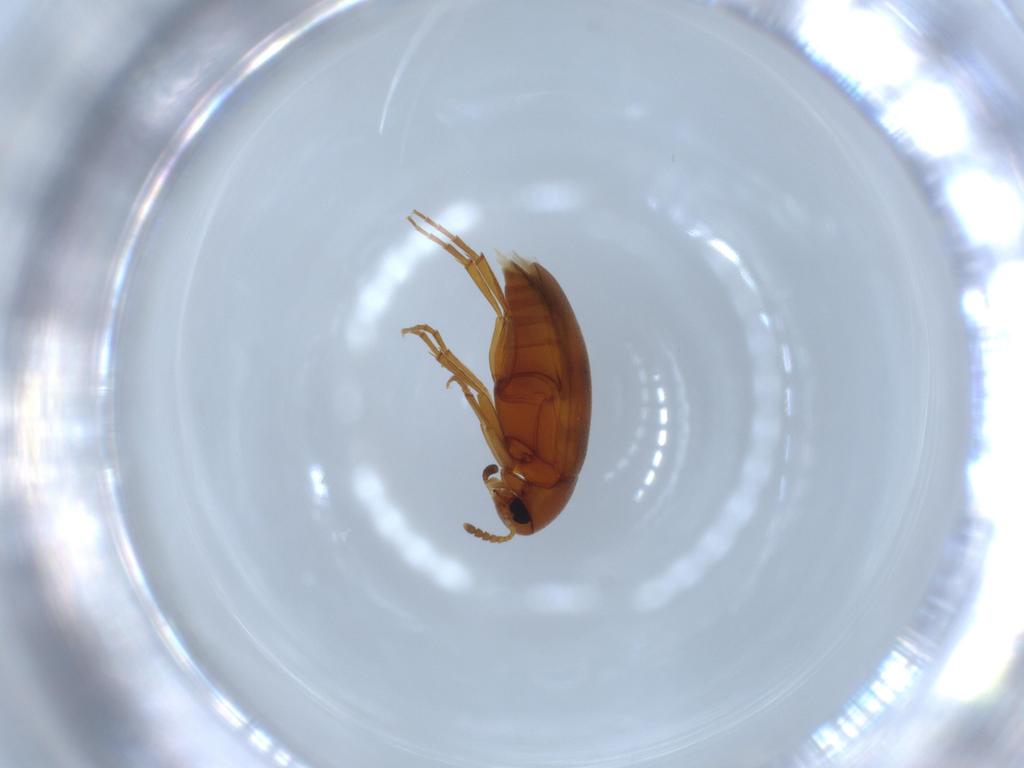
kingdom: Animalia
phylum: Arthropoda
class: Insecta
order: Coleoptera
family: Scraptiidae
